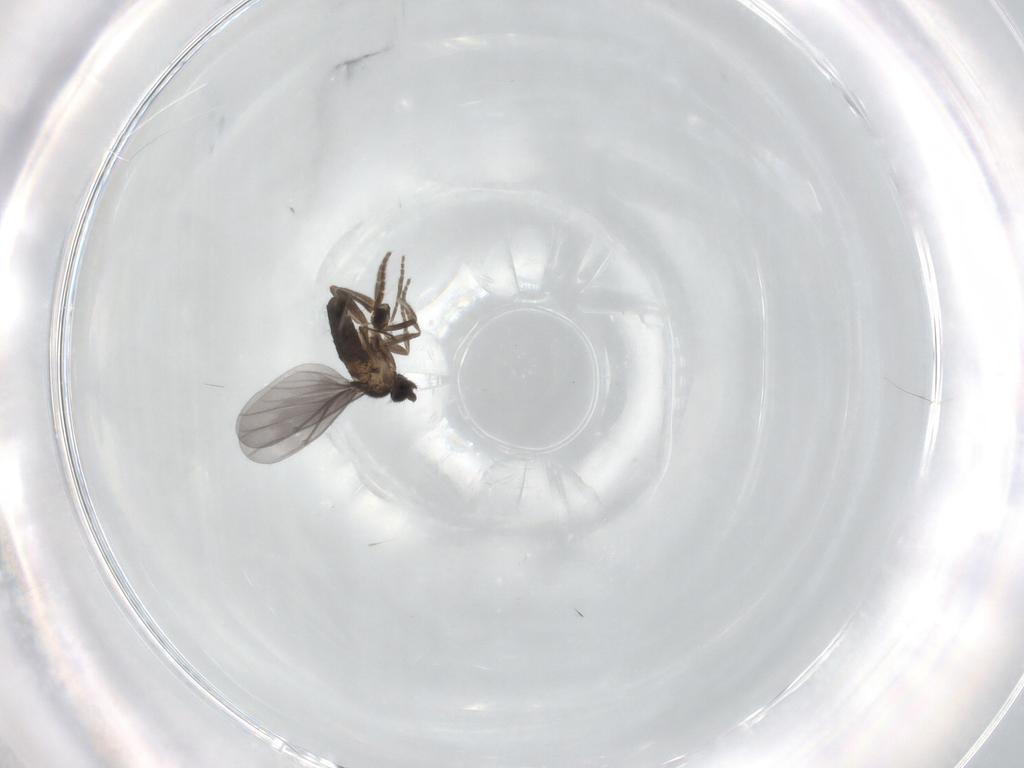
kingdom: Animalia
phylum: Arthropoda
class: Insecta
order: Diptera
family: Phoridae
